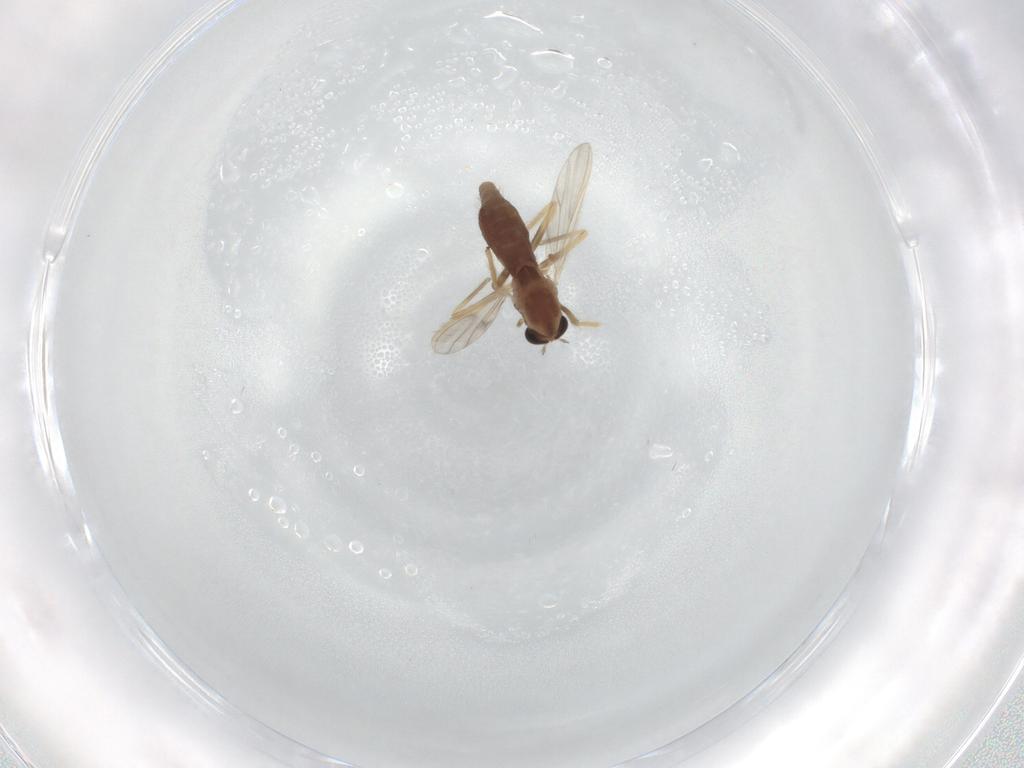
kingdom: Animalia
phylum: Arthropoda
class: Insecta
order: Diptera
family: Chironomidae
